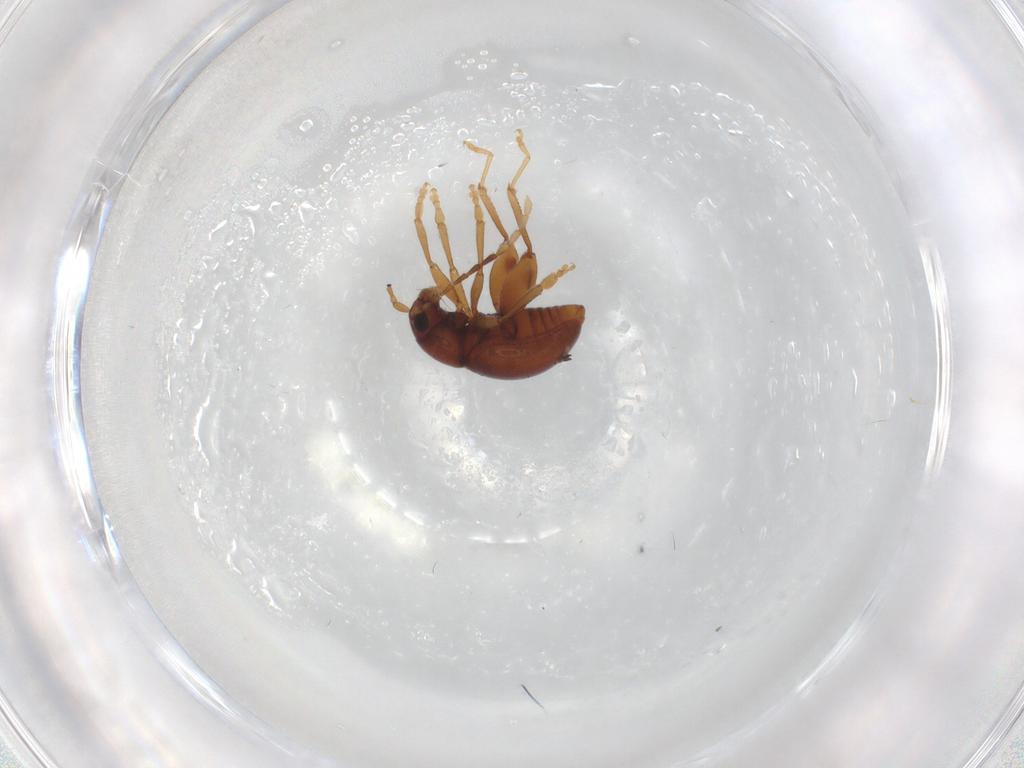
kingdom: Animalia
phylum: Arthropoda
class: Insecta
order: Coleoptera
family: Chrysomelidae
